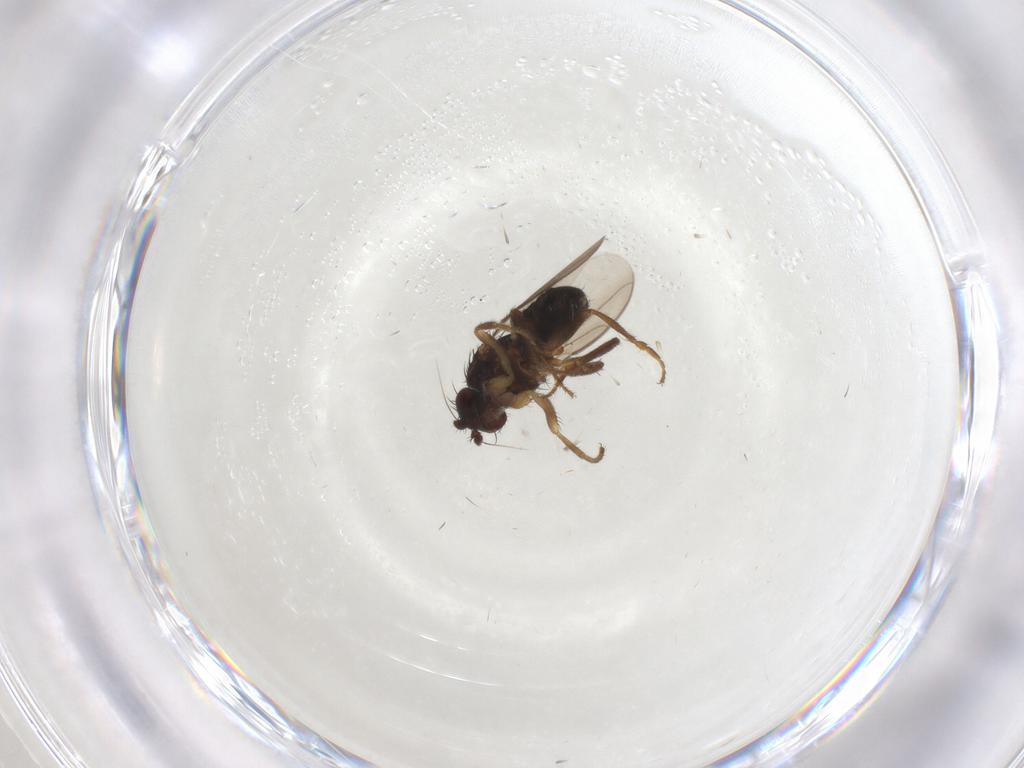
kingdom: Animalia
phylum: Arthropoda
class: Insecta
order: Diptera
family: Sphaeroceridae
